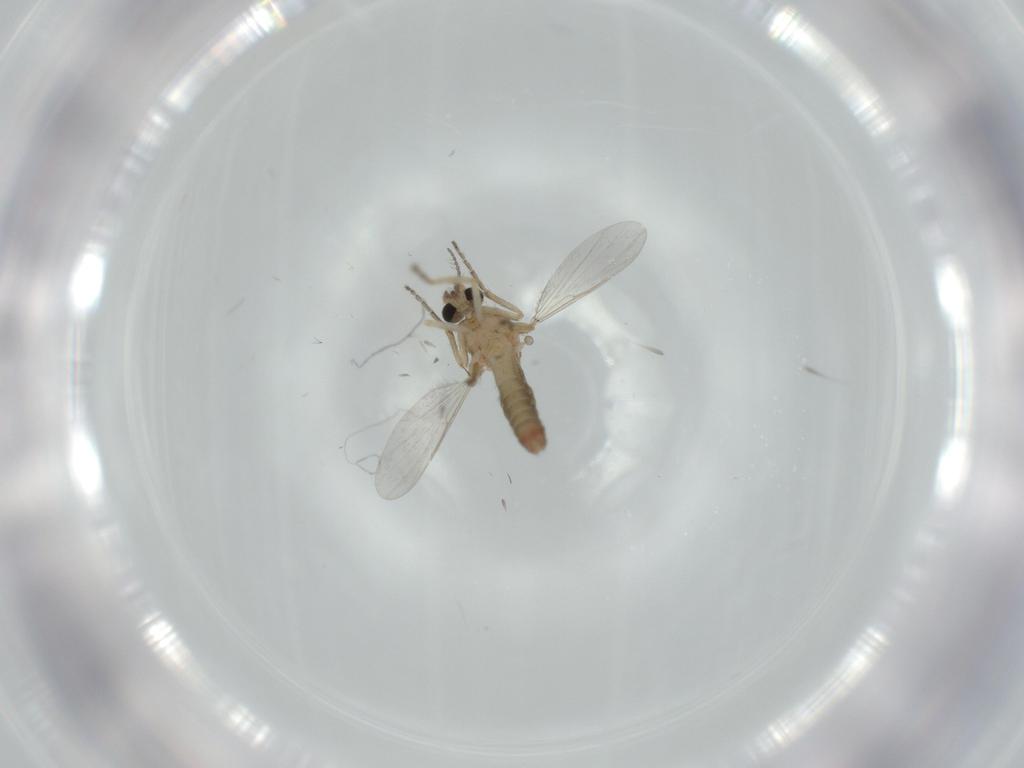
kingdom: Animalia
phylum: Arthropoda
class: Insecta
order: Diptera
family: Ceratopogonidae
